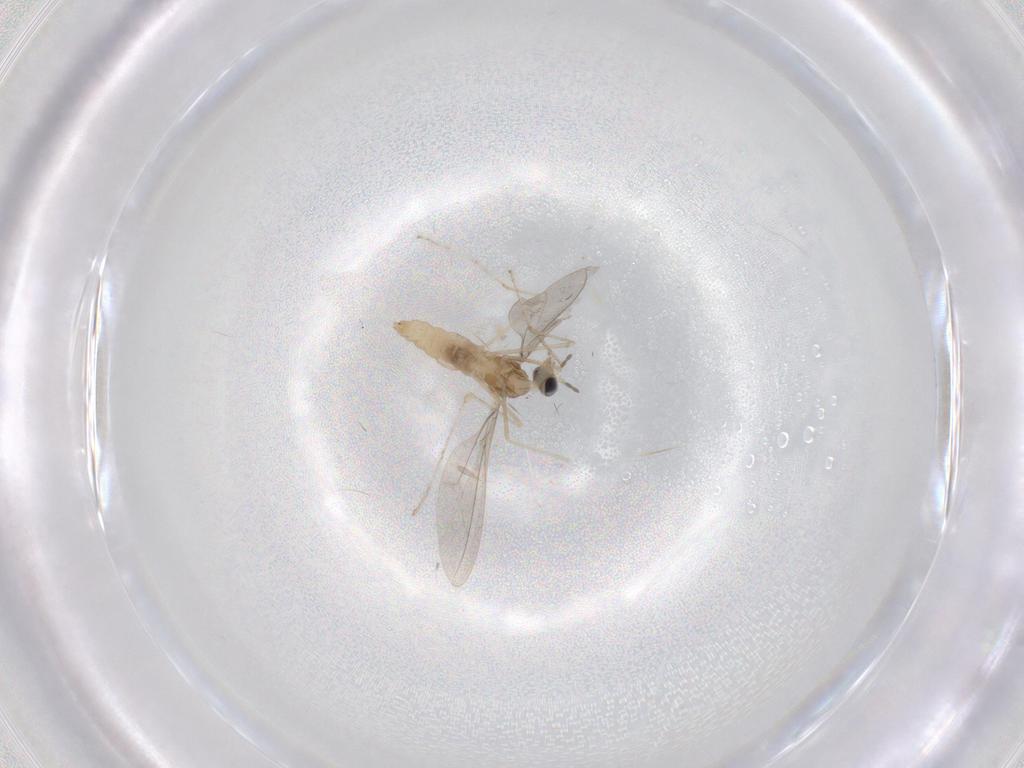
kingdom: Animalia
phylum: Arthropoda
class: Insecta
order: Diptera
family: Cecidomyiidae
